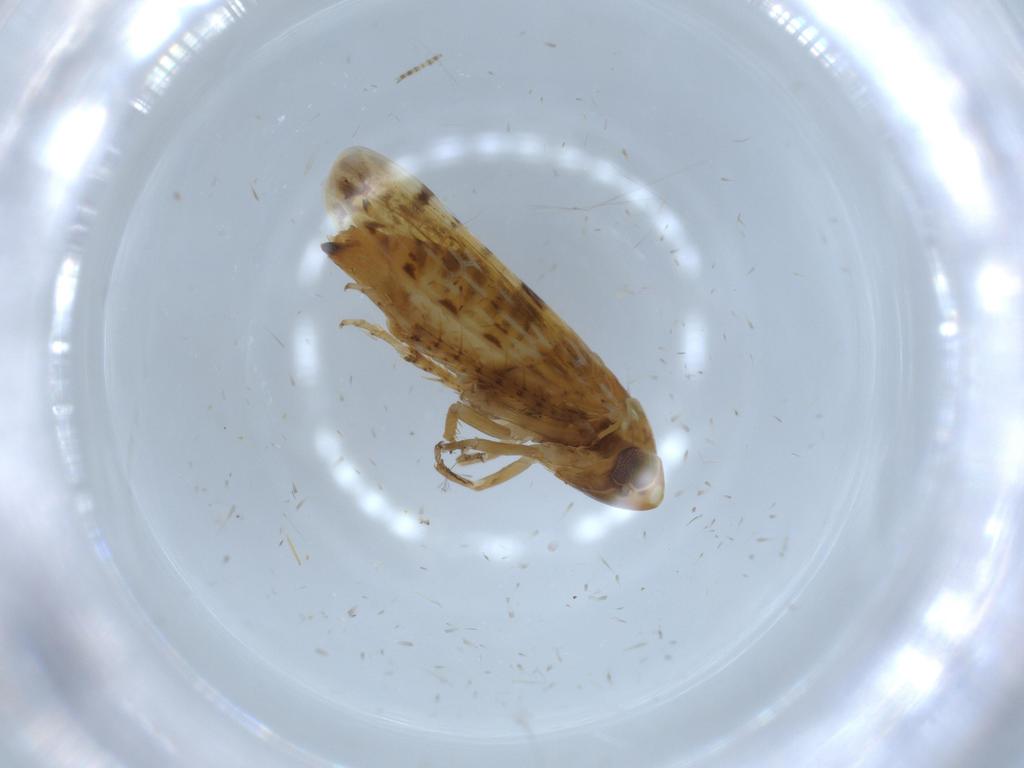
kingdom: Animalia
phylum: Arthropoda
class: Insecta
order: Hemiptera
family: Cicadellidae
